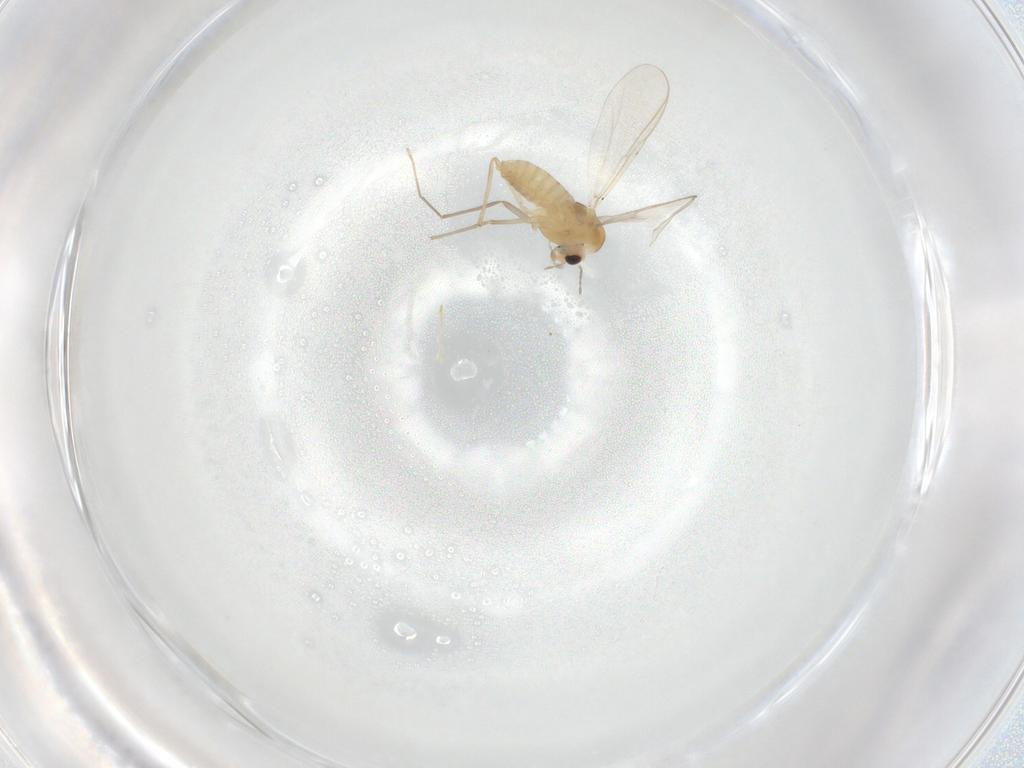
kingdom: Animalia
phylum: Arthropoda
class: Insecta
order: Diptera
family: Chironomidae
